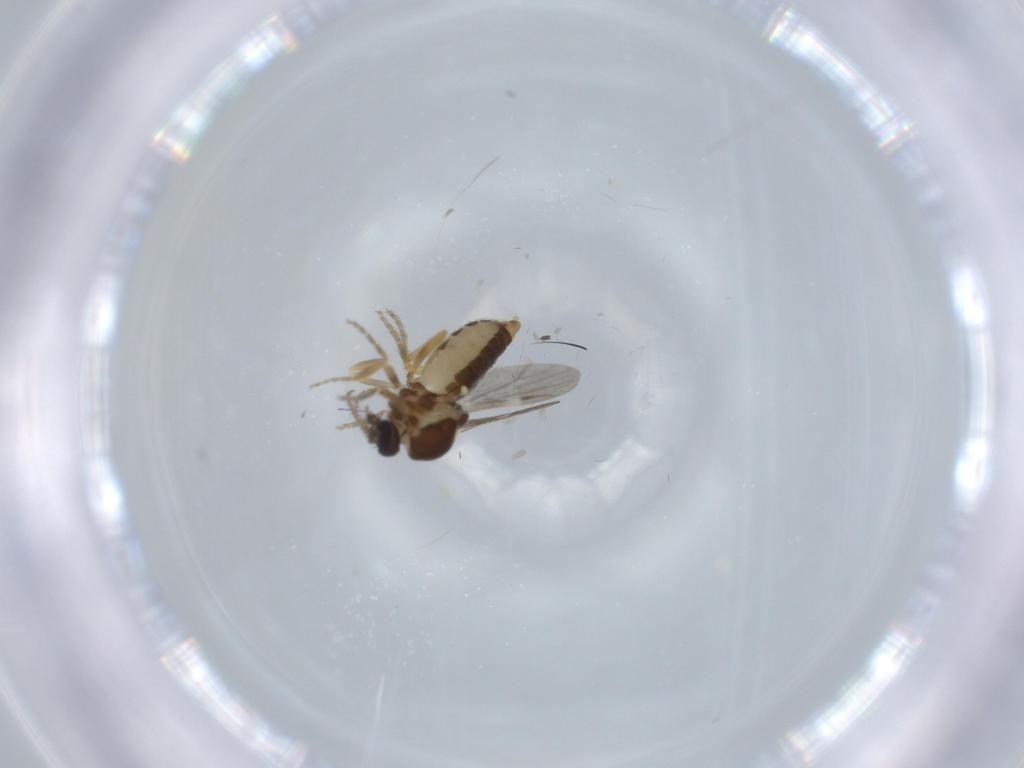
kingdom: Animalia
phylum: Arthropoda
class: Insecta
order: Diptera
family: Ceratopogonidae
